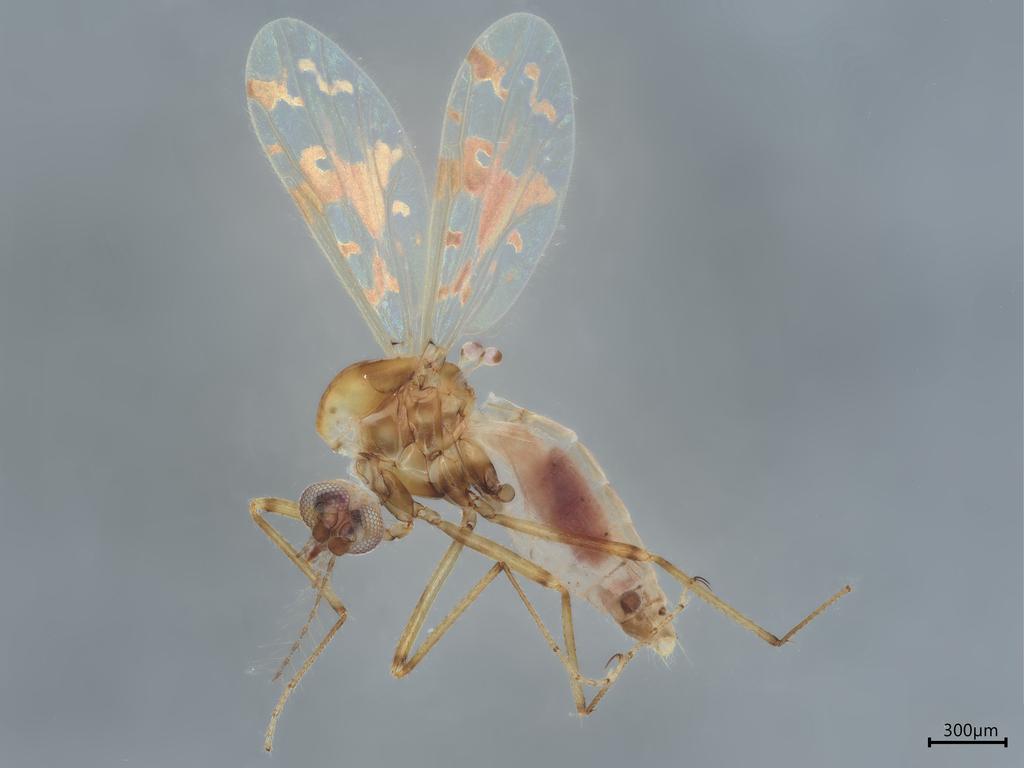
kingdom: Animalia
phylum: Arthropoda
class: Insecta
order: Diptera
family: Ceratopogonidae
